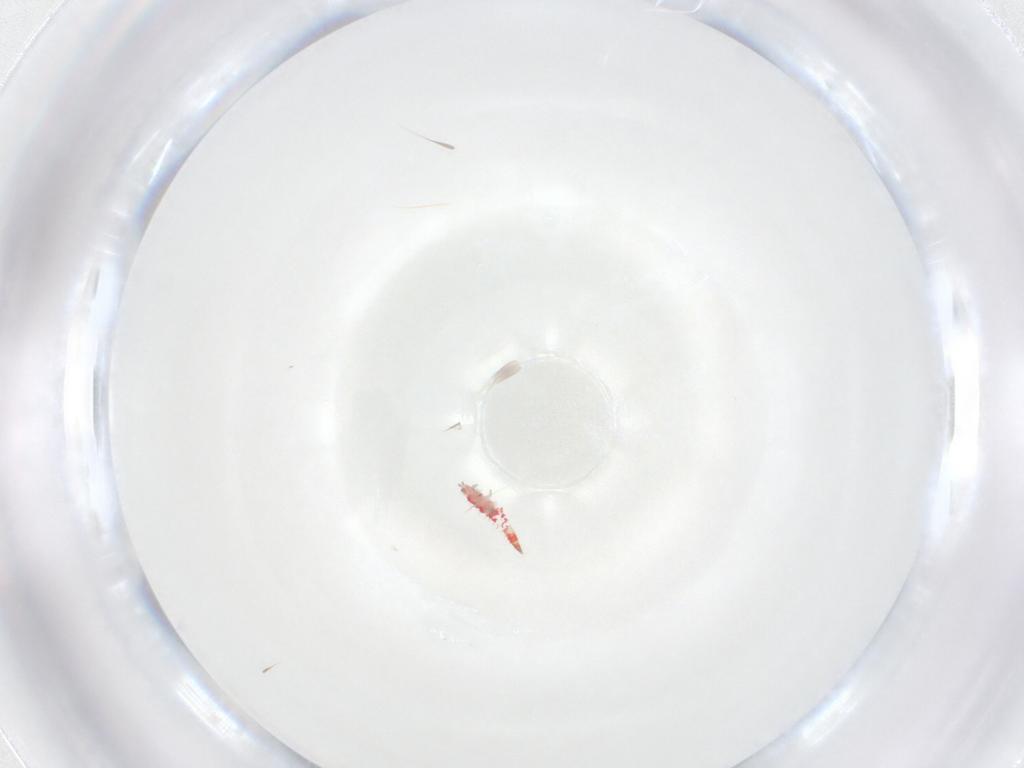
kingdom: Animalia
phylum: Arthropoda
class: Insecta
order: Thysanoptera
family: Phlaeothripidae
